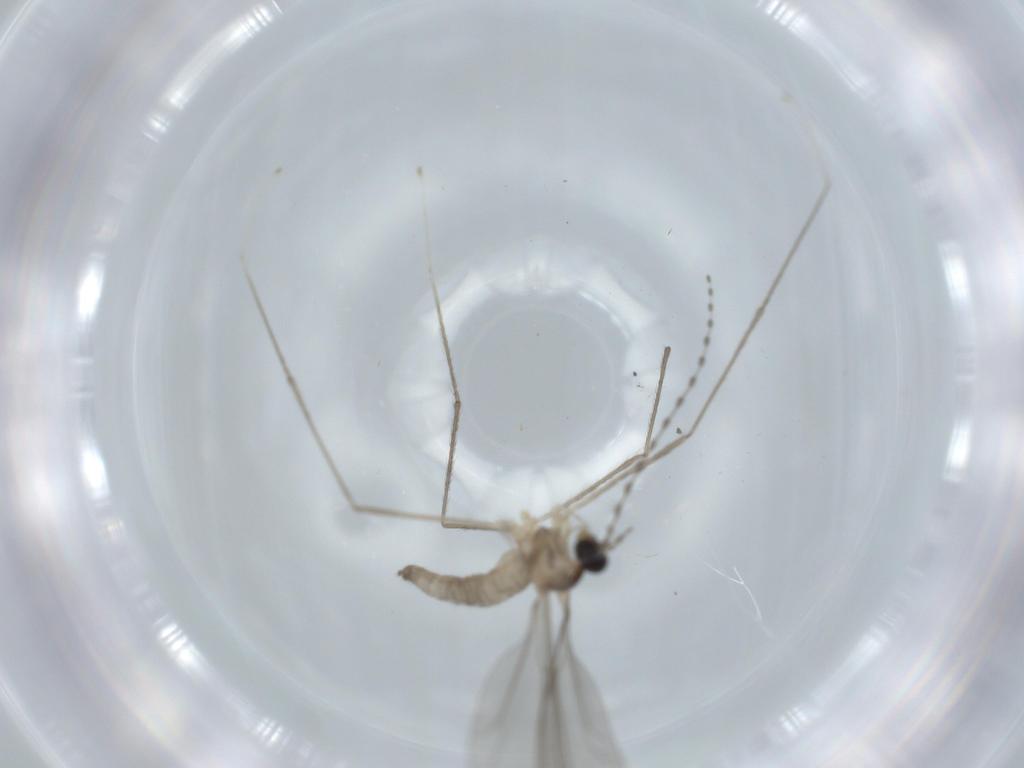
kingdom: Animalia
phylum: Arthropoda
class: Insecta
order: Diptera
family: Cecidomyiidae
